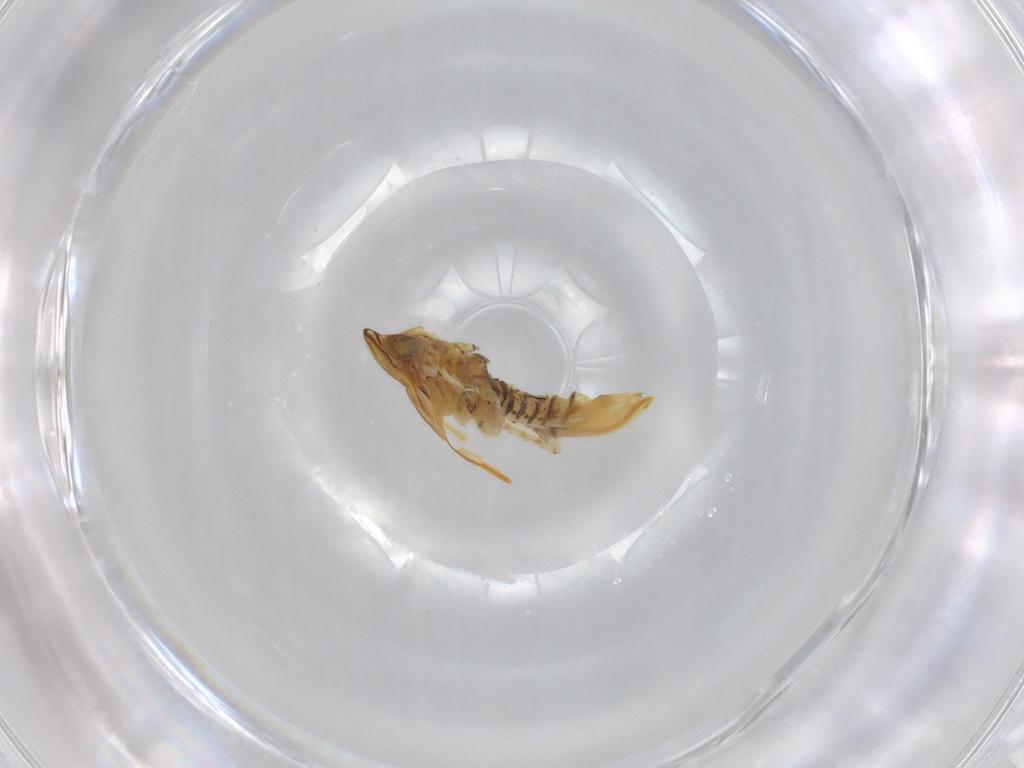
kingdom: Animalia
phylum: Arthropoda
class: Insecta
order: Hemiptera
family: Cicadellidae
